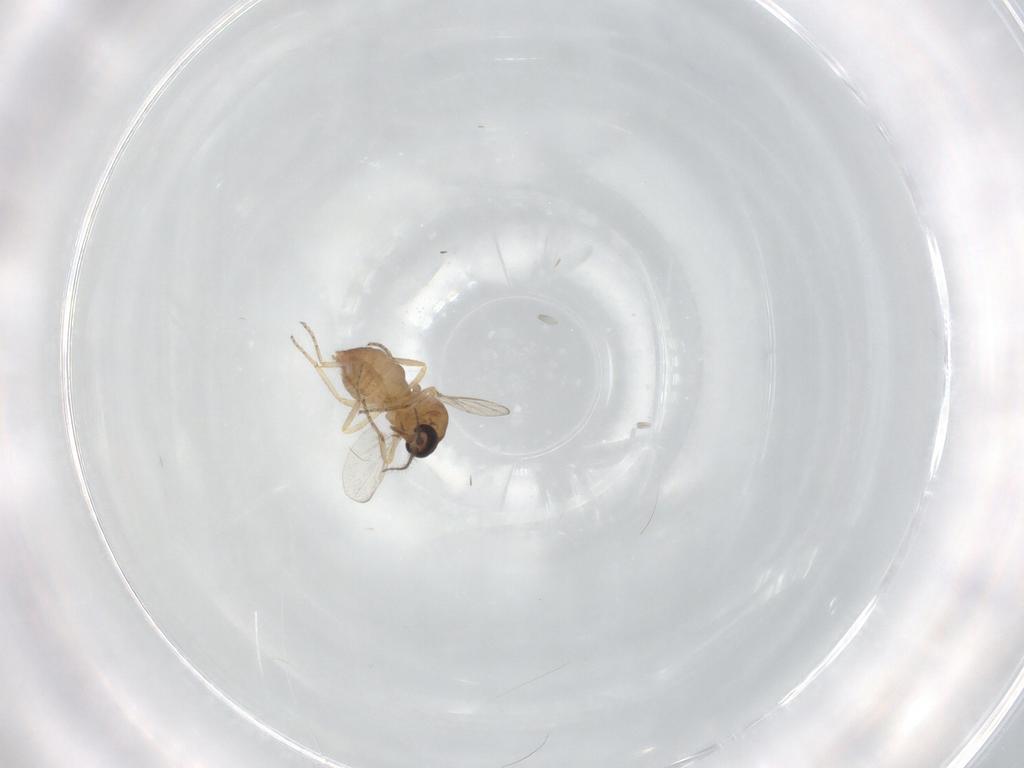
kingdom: Animalia
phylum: Arthropoda
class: Insecta
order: Diptera
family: Ceratopogonidae
